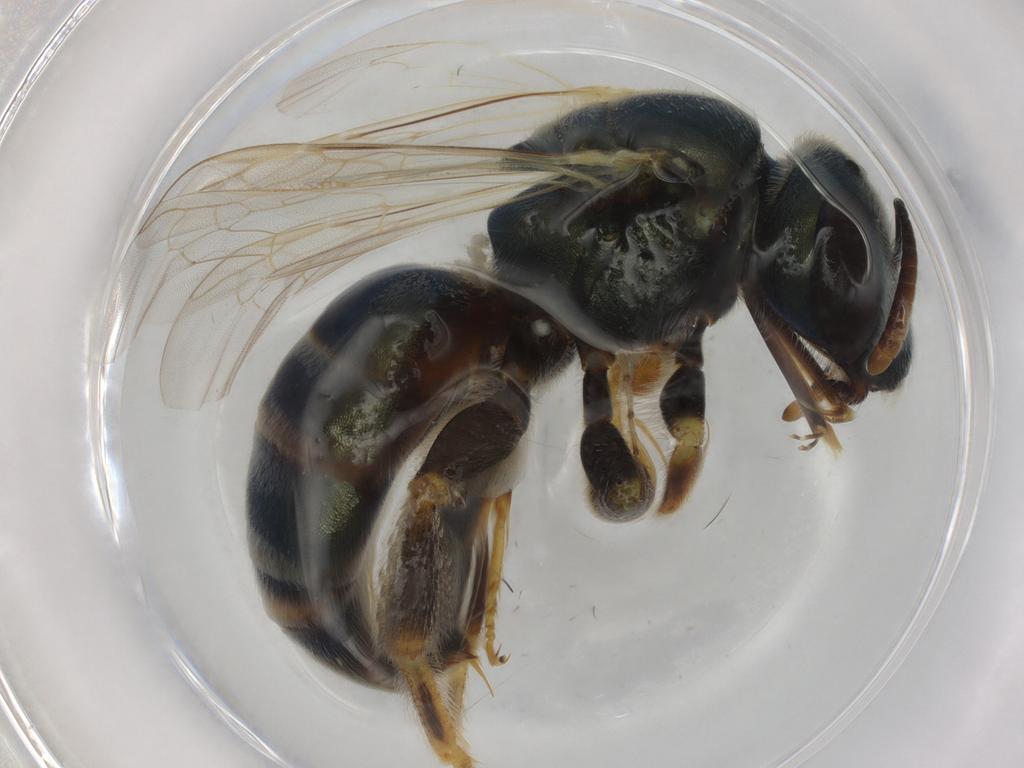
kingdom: Animalia
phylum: Arthropoda
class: Insecta
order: Hymenoptera
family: Halictidae
